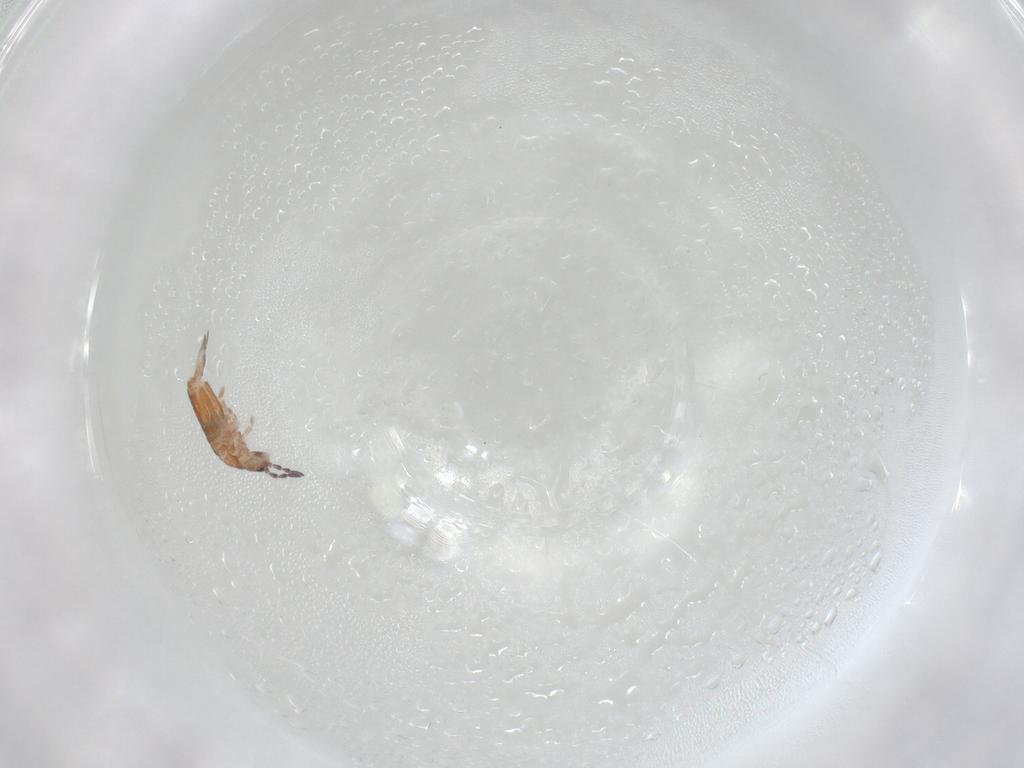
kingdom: Animalia
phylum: Arthropoda
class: Collembola
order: Entomobryomorpha
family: Entomobryidae
